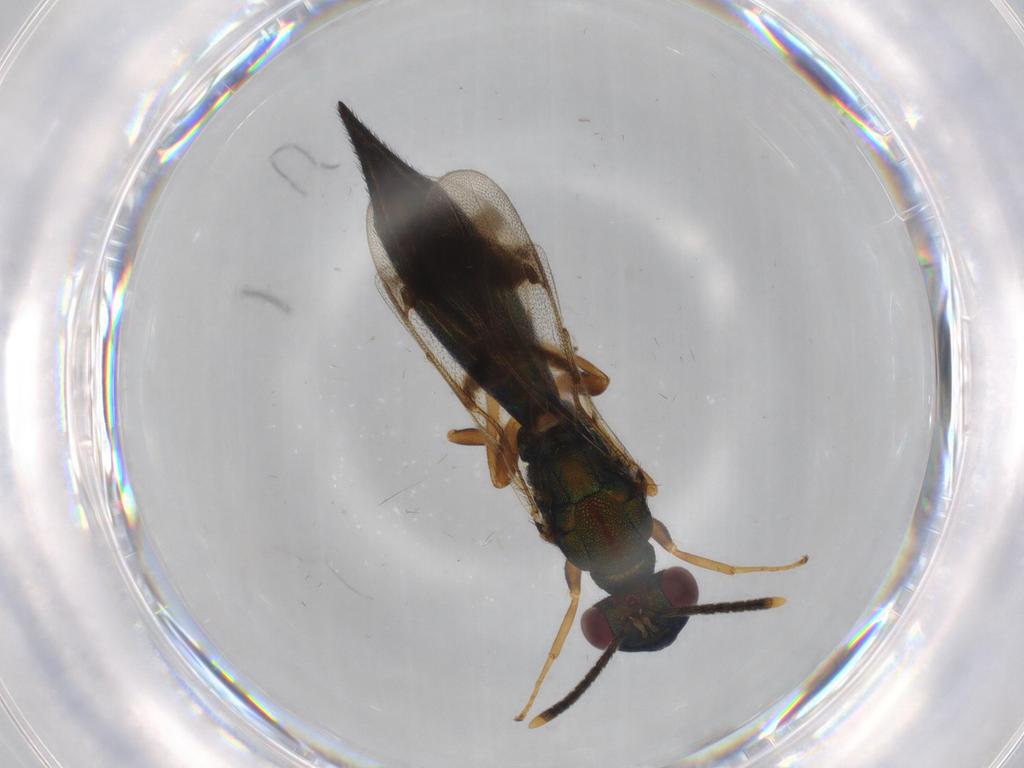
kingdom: Animalia
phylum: Arthropoda
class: Insecta
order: Hymenoptera
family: Pteromalidae
